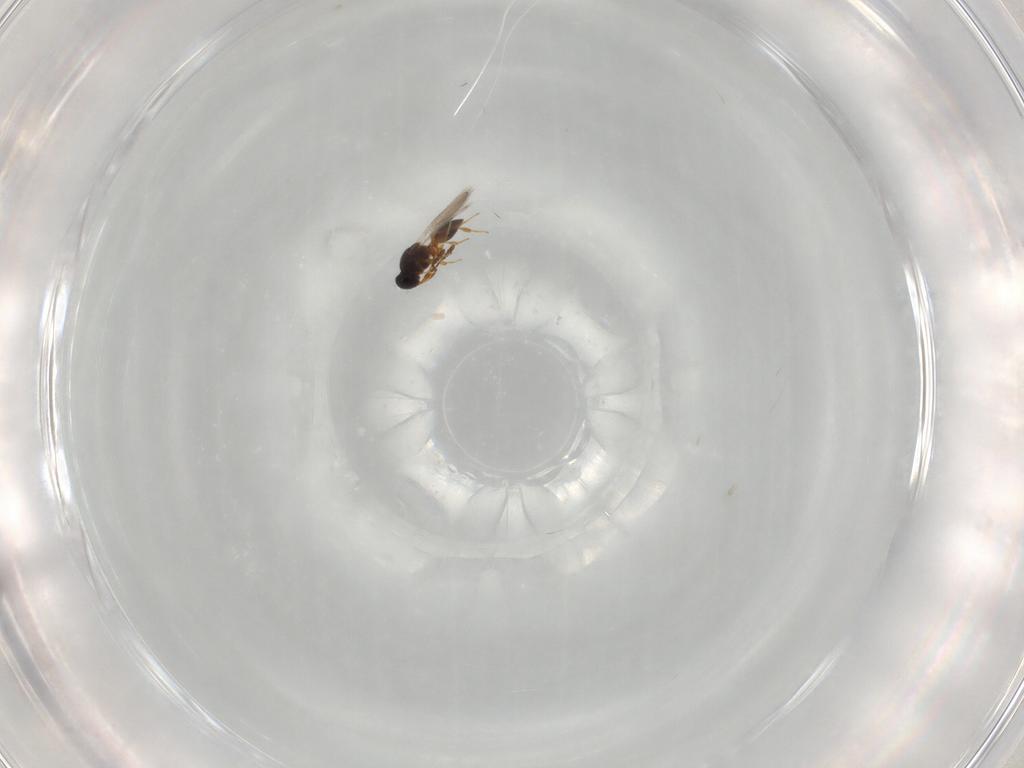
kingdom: Animalia
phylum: Arthropoda
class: Insecta
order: Hymenoptera
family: Platygastridae
